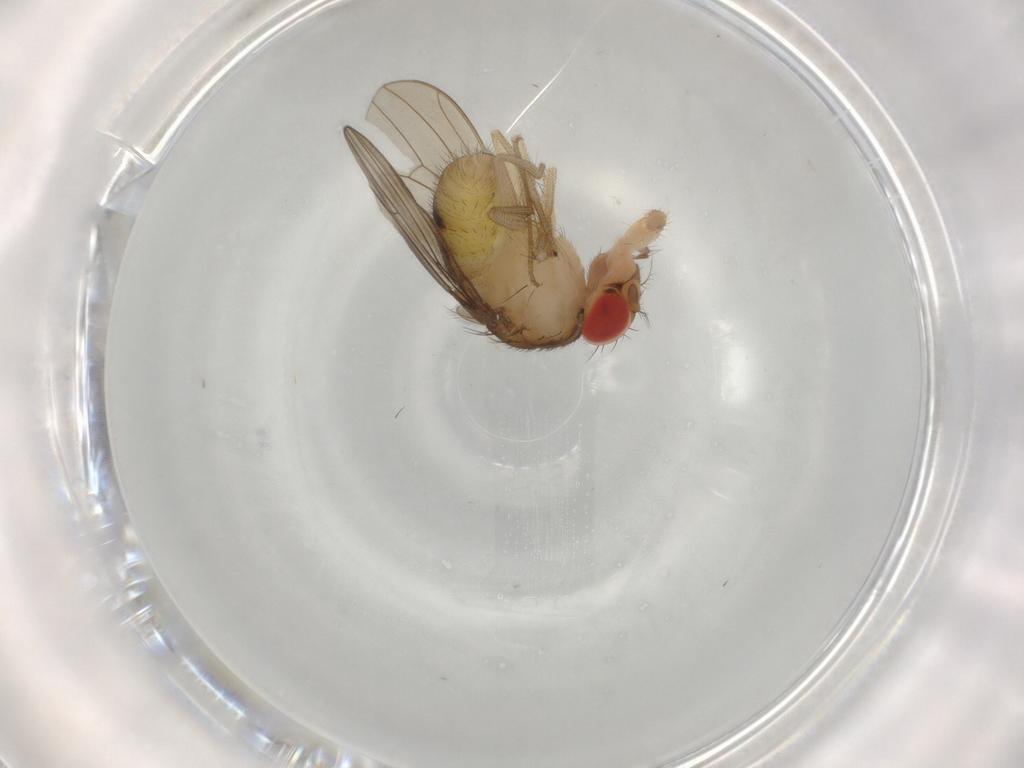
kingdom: Animalia
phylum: Arthropoda
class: Insecta
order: Diptera
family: Drosophilidae
